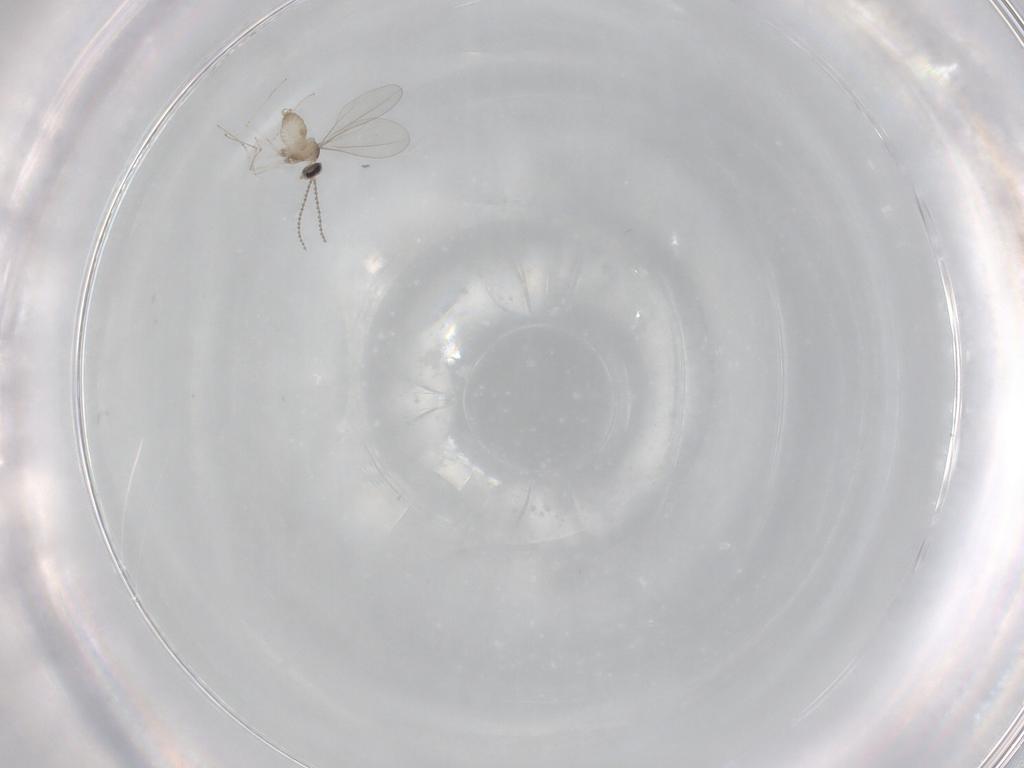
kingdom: Animalia
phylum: Arthropoda
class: Insecta
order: Diptera
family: Cecidomyiidae
